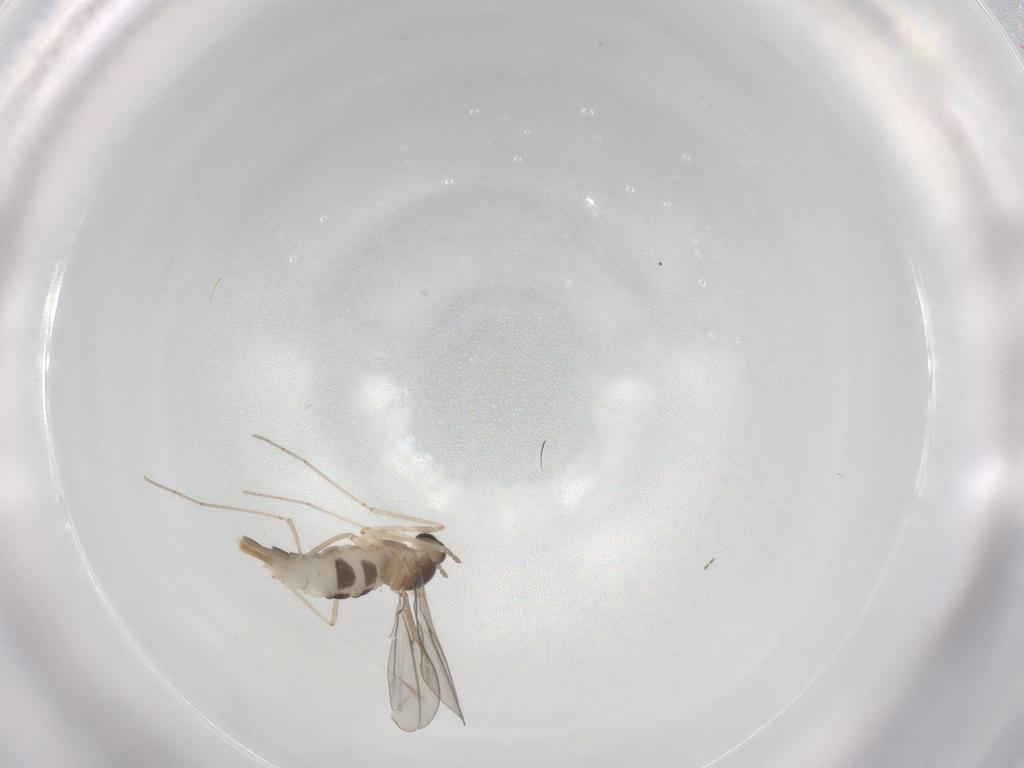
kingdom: Animalia
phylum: Arthropoda
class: Insecta
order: Diptera
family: Cecidomyiidae
